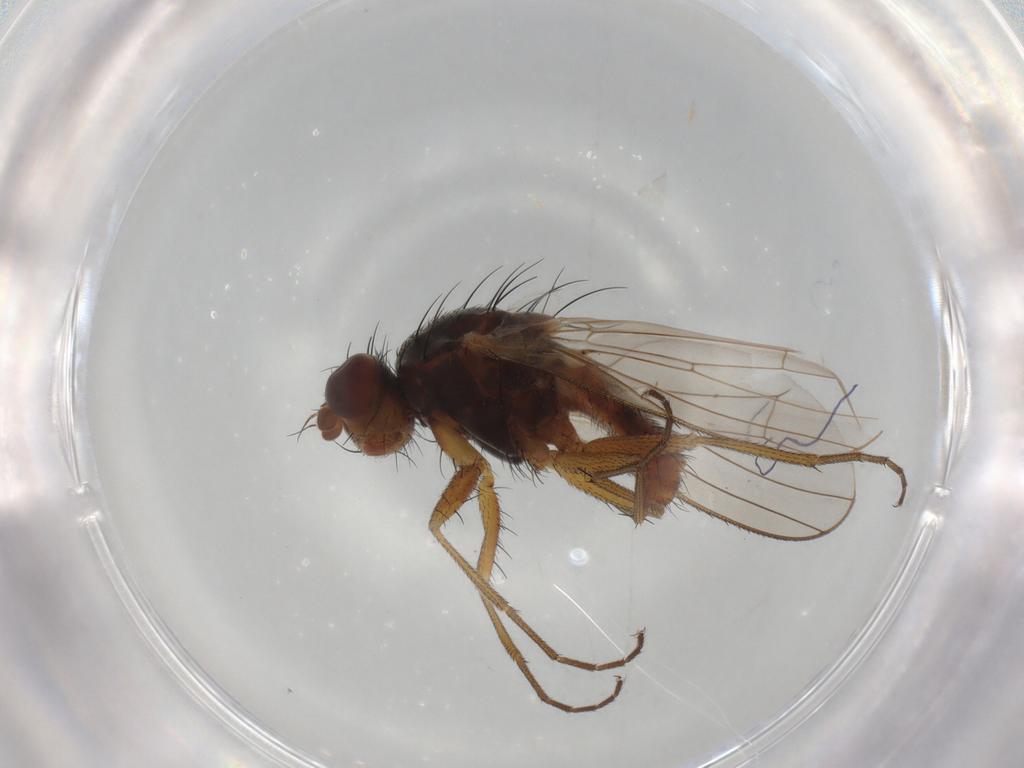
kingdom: Animalia
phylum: Arthropoda
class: Insecta
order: Diptera
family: Heleomyzidae
